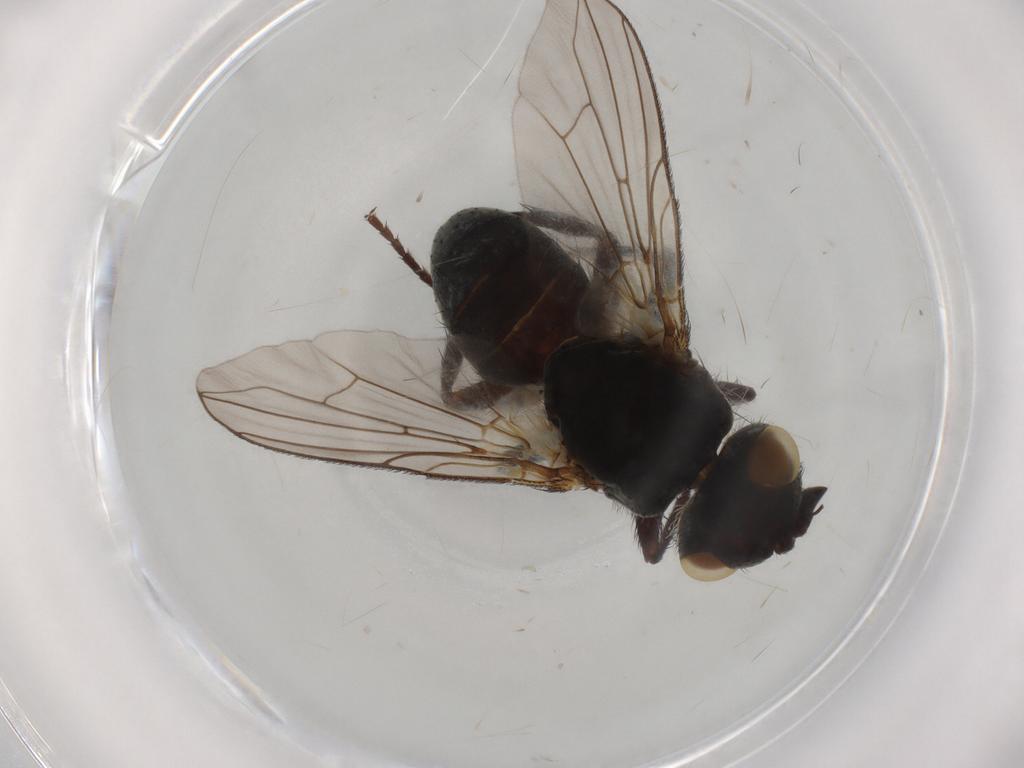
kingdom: Animalia
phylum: Arthropoda
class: Insecta
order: Diptera
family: Tachinidae
